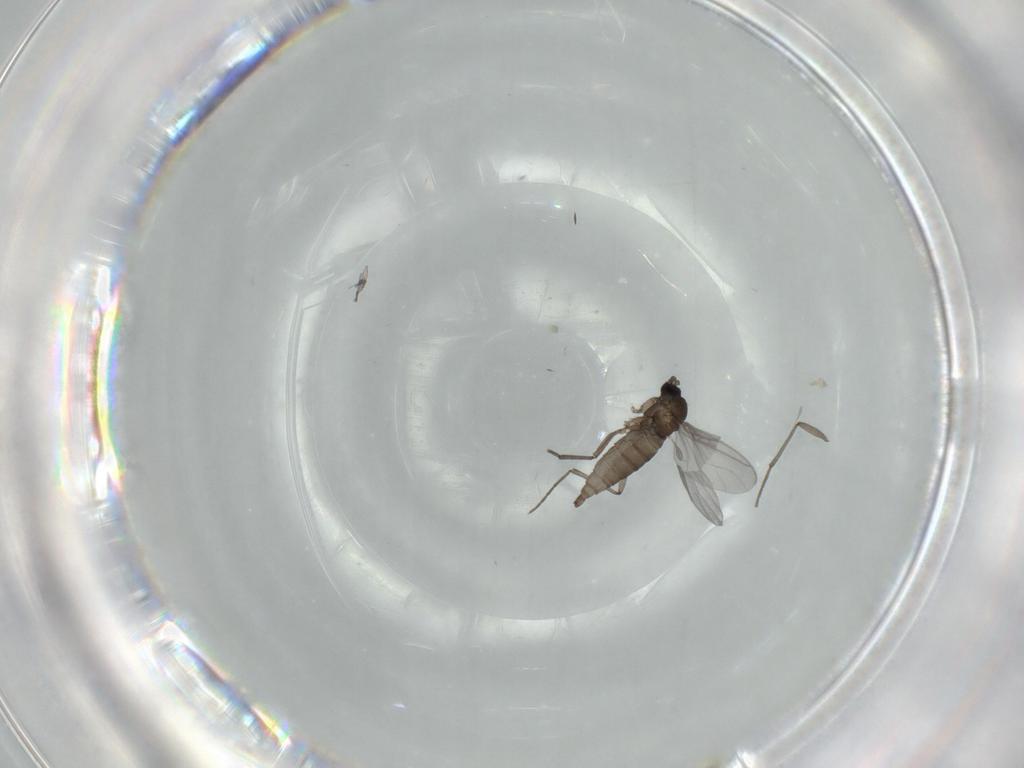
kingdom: Animalia
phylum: Arthropoda
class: Insecta
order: Diptera
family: Sciaridae
